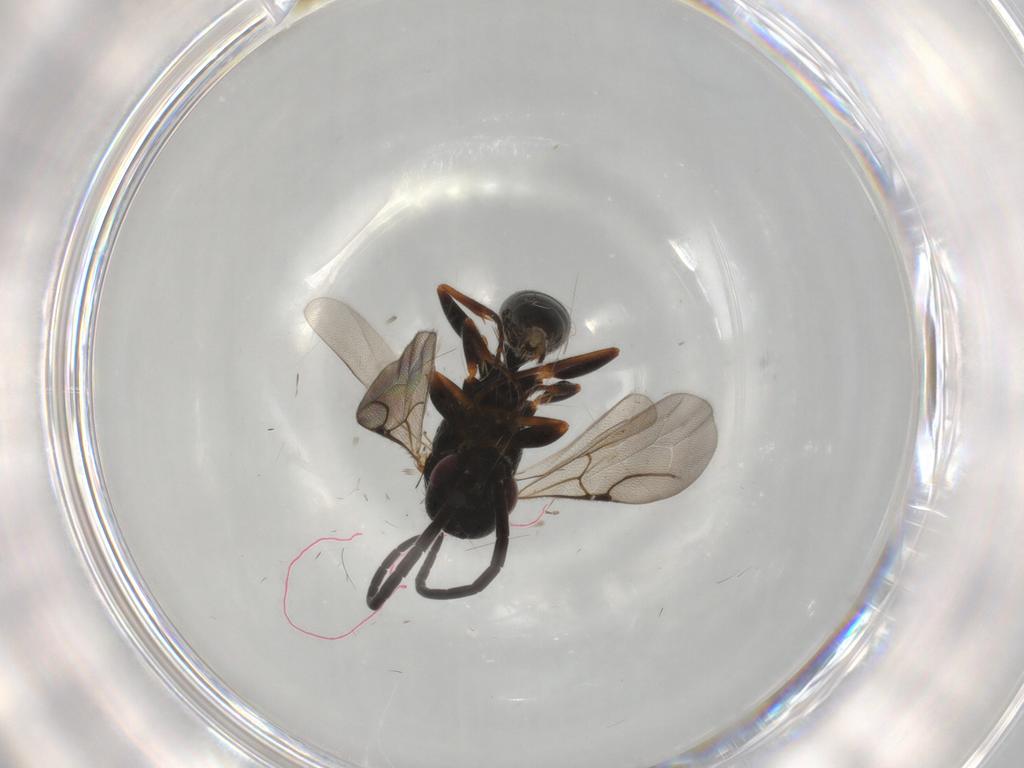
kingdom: Animalia
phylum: Arthropoda
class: Insecta
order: Hymenoptera
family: Bethylidae
